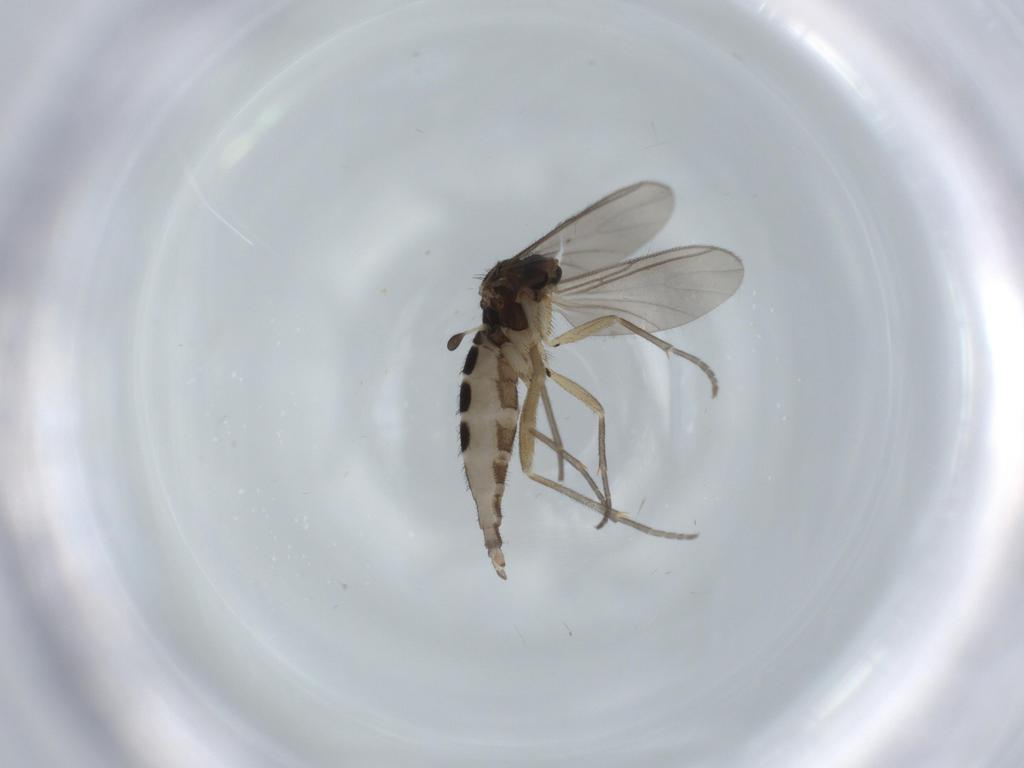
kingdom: Animalia
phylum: Arthropoda
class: Insecta
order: Diptera
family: Sciaridae
